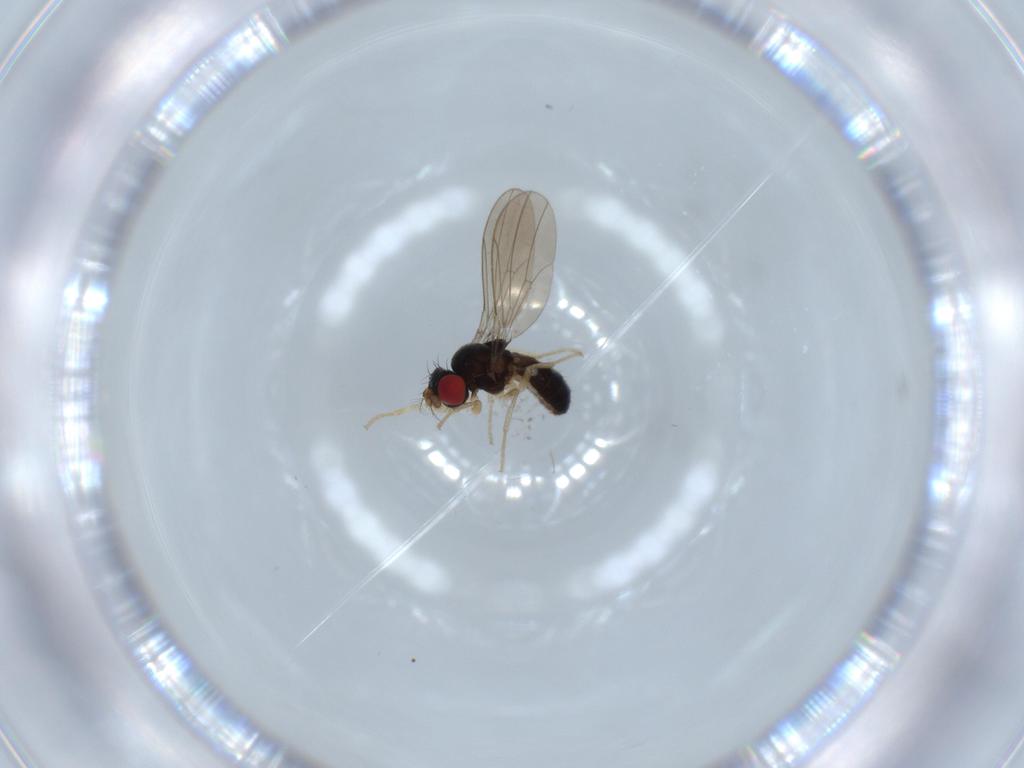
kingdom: Animalia
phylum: Arthropoda
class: Insecta
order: Diptera
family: Drosophilidae
